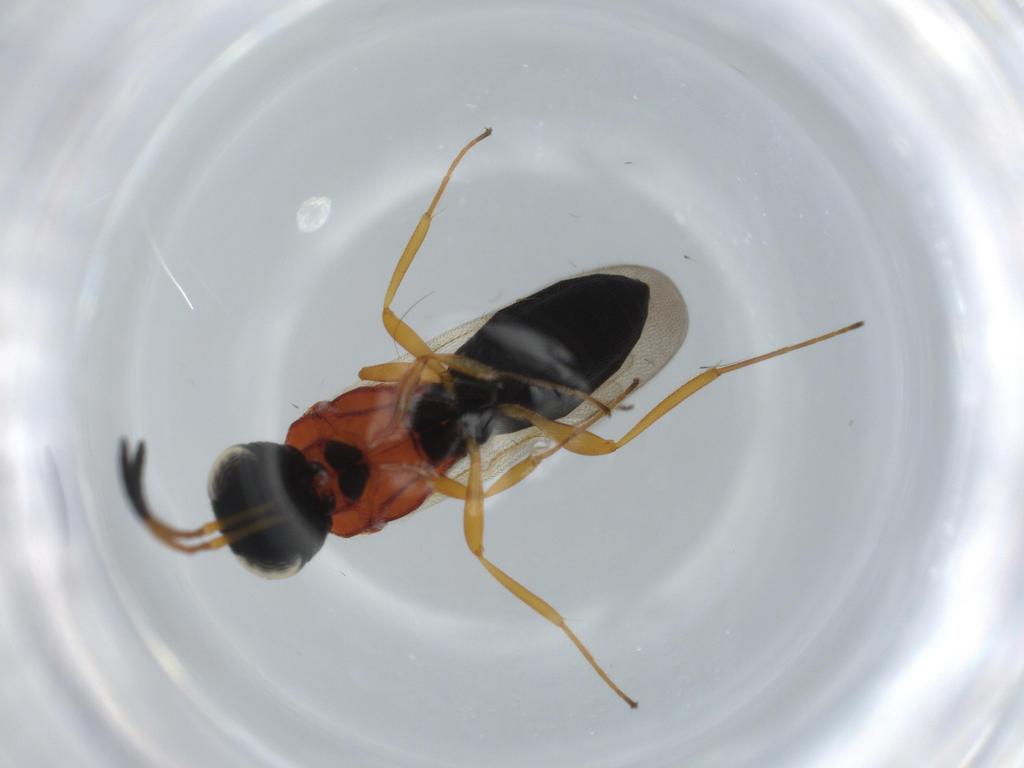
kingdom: Animalia
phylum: Arthropoda
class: Insecta
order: Hymenoptera
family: Scelionidae
